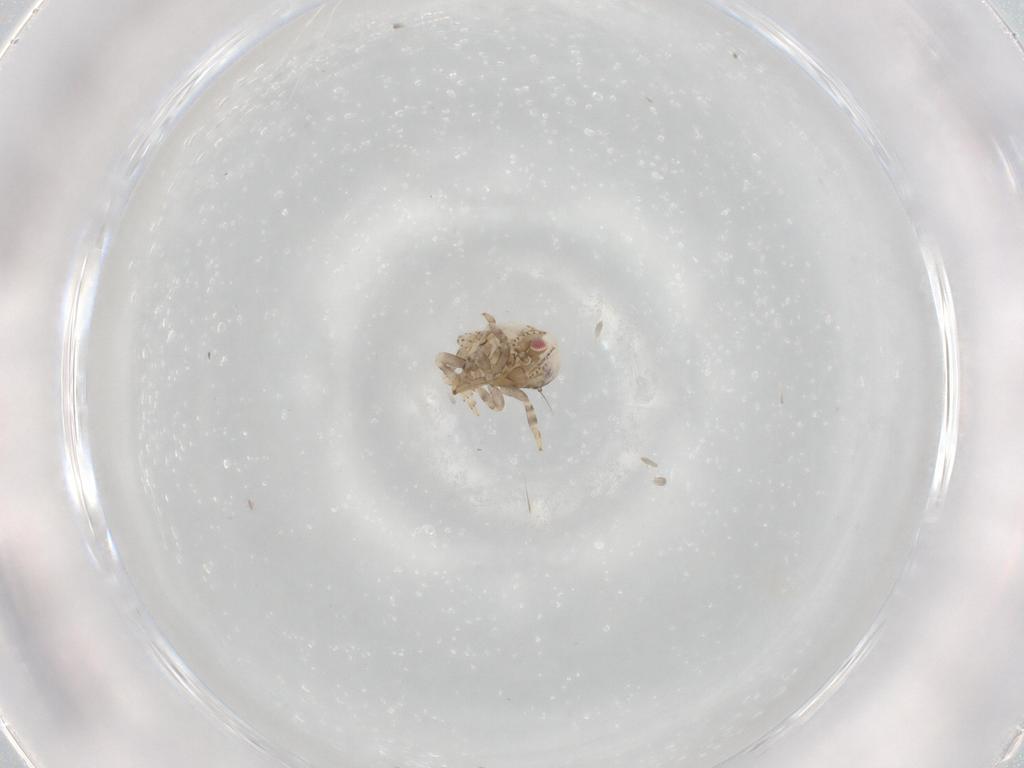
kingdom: Animalia
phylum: Arthropoda
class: Insecta
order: Hemiptera
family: Acanaloniidae
